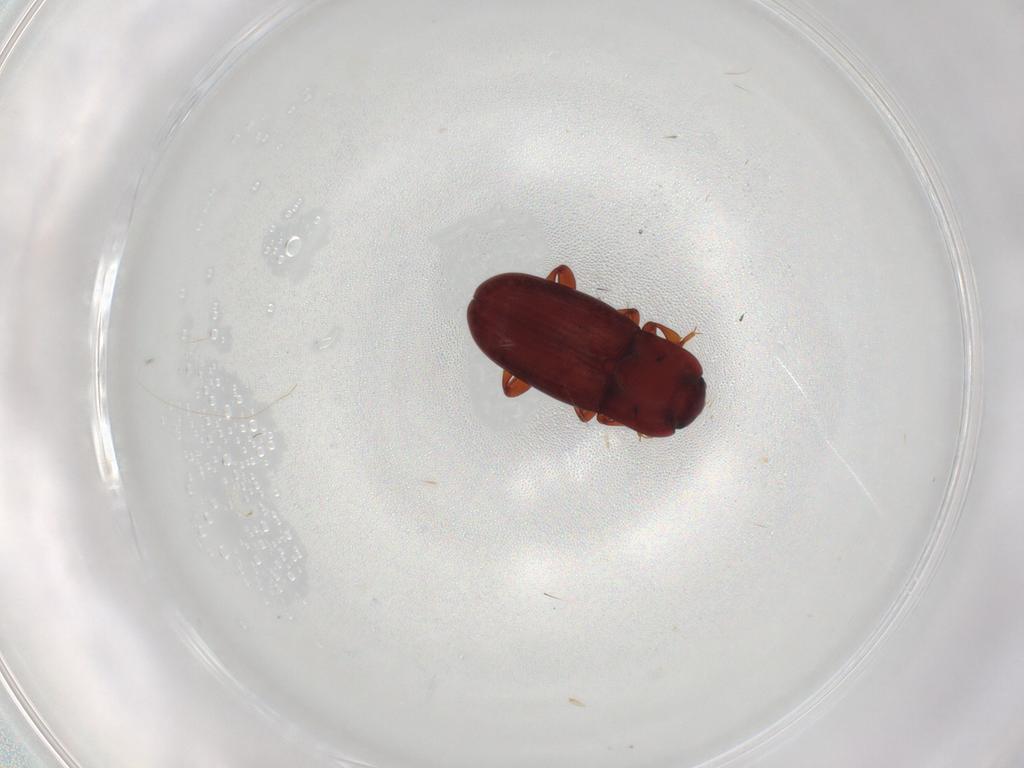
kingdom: Animalia
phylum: Arthropoda
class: Insecta
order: Coleoptera
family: Cerylonidae
